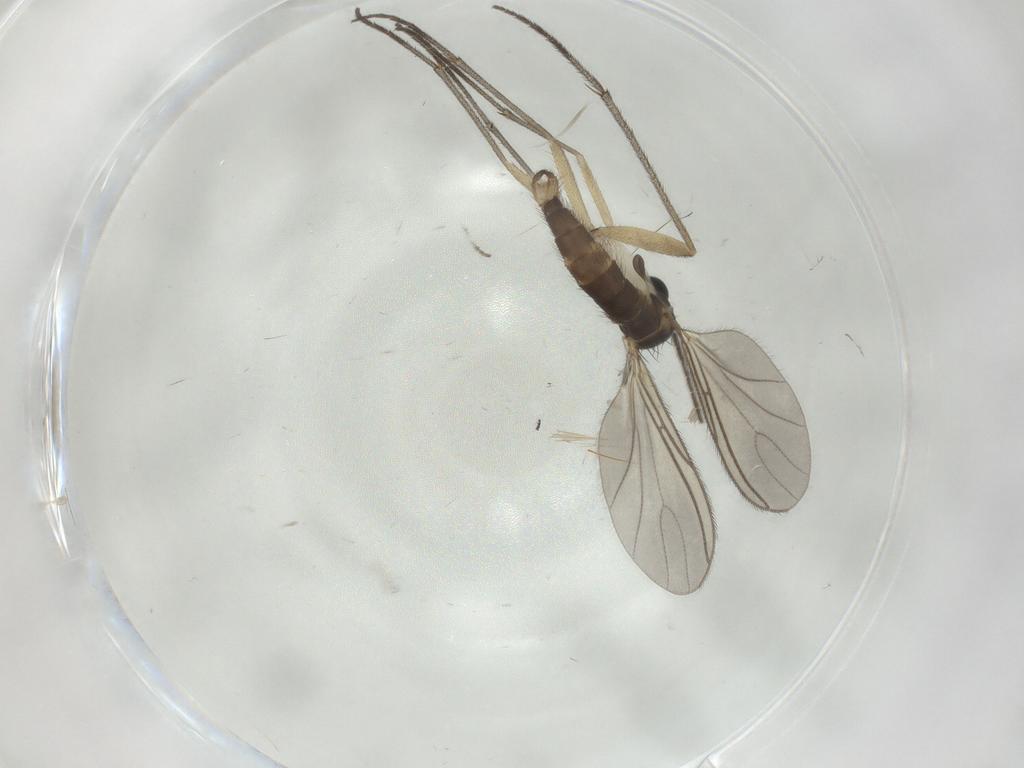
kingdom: Animalia
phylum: Arthropoda
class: Insecta
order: Diptera
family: Sciaridae
